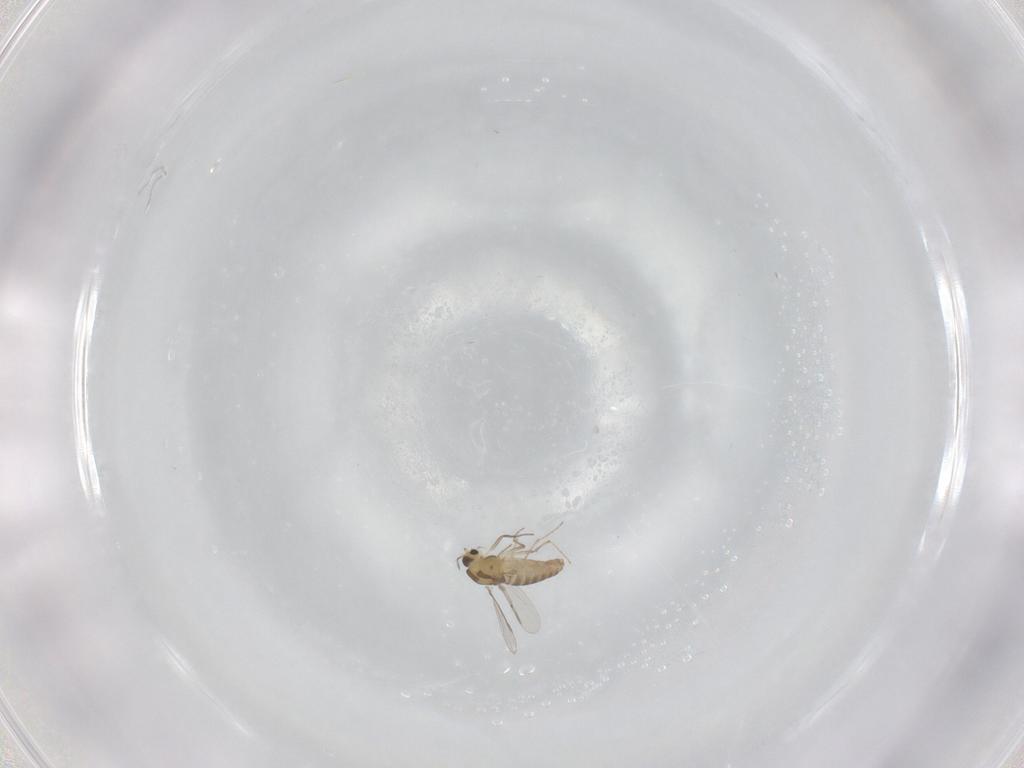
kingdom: Animalia
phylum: Arthropoda
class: Insecta
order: Diptera
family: Chironomidae
